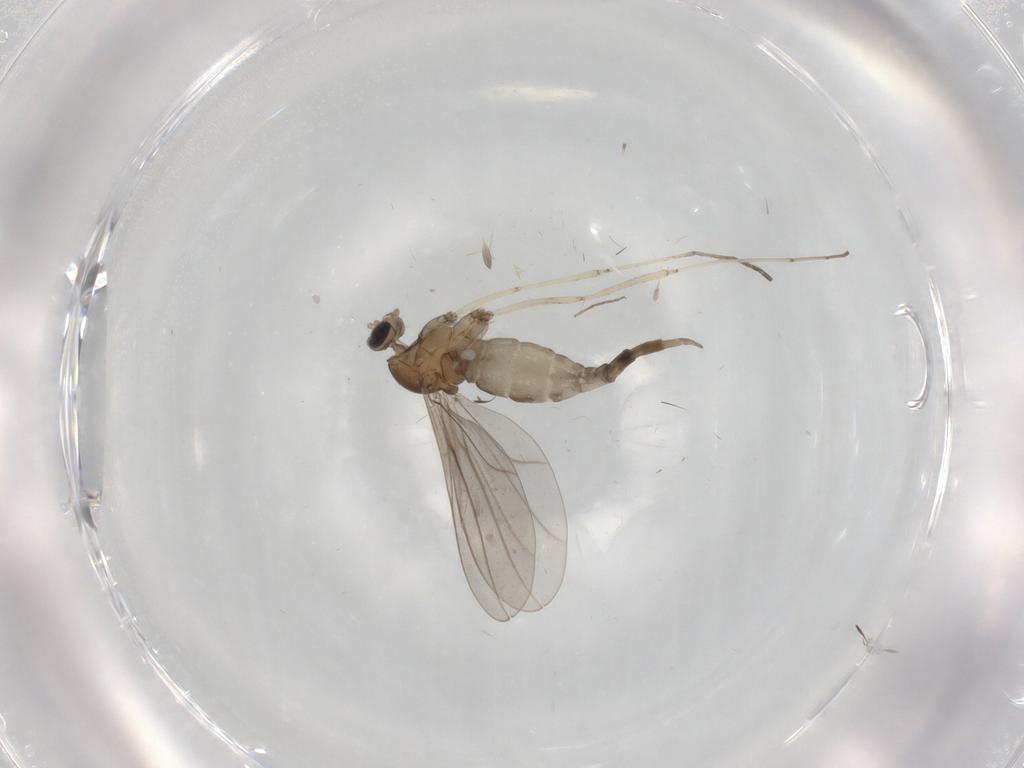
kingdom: Animalia
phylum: Arthropoda
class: Insecta
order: Diptera
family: Cecidomyiidae
